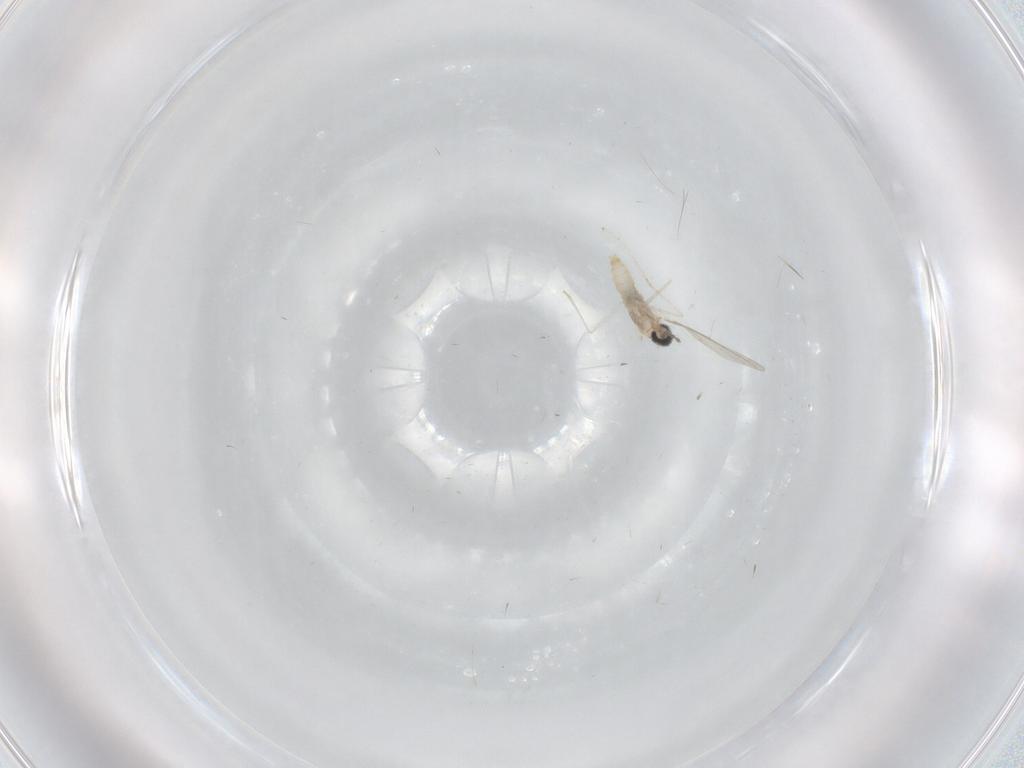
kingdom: Animalia
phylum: Arthropoda
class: Insecta
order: Diptera
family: Cecidomyiidae
